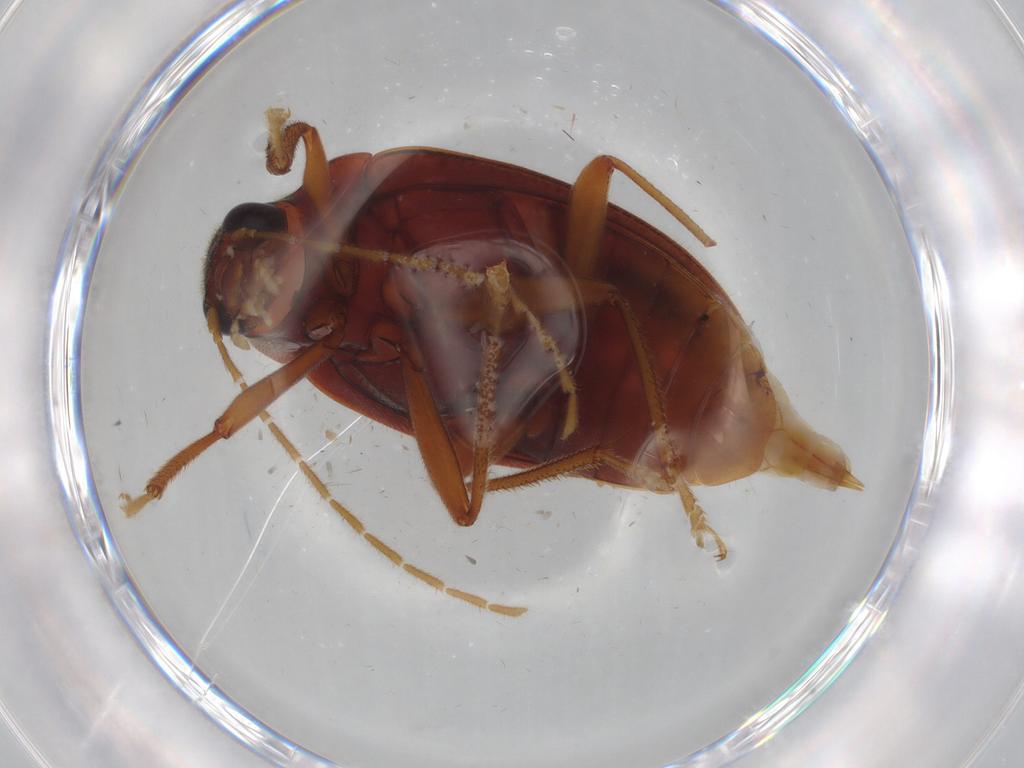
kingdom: Animalia
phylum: Arthropoda
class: Insecta
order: Coleoptera
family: Ptilodactylidae
